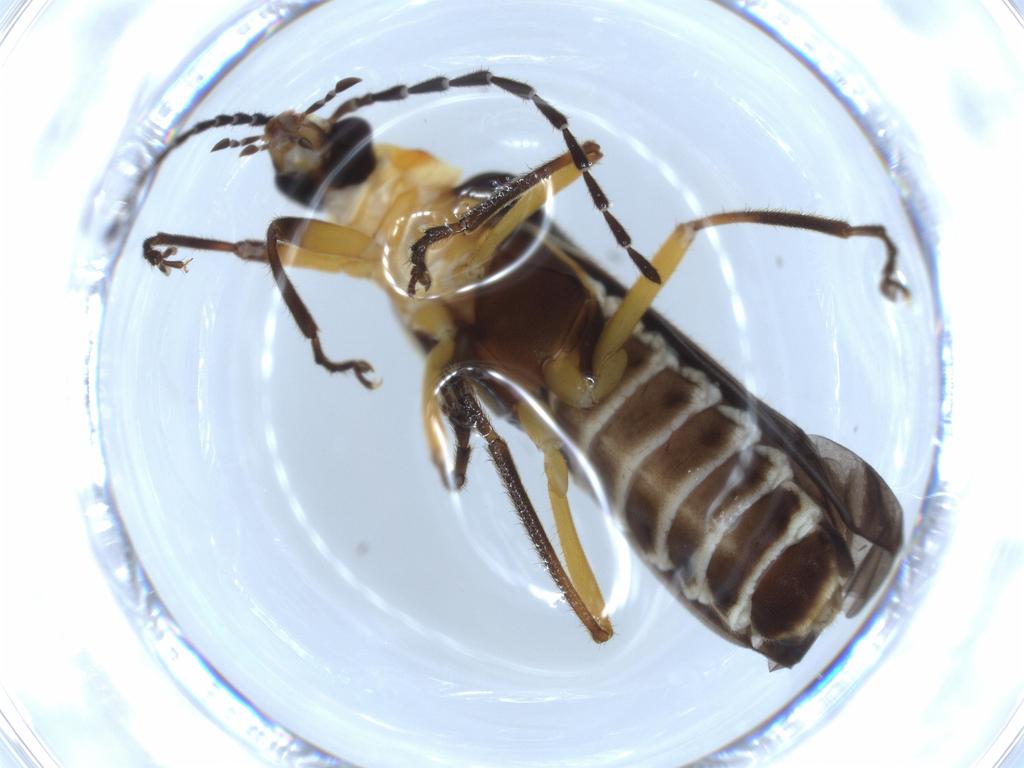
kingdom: Animalia
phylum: Arthropoda
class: Insecta
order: Coleoptera
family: Cantharidae
